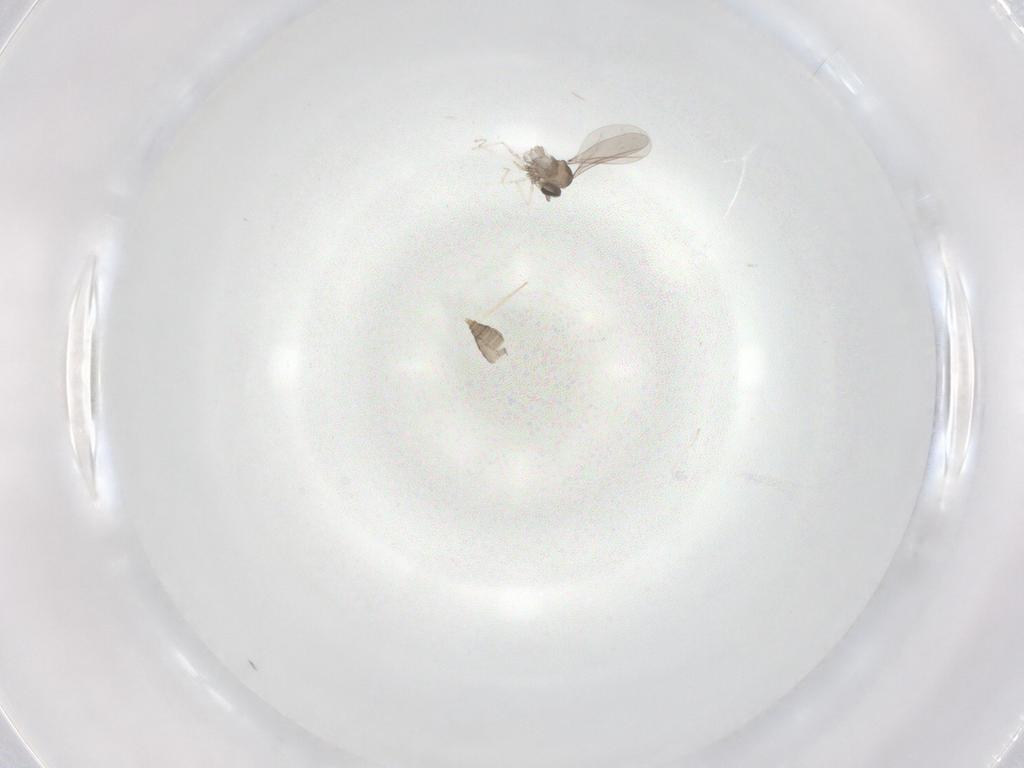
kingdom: Animalia
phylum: Arthropoda
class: Insecta
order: Diptera
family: Cecidomyiidae
